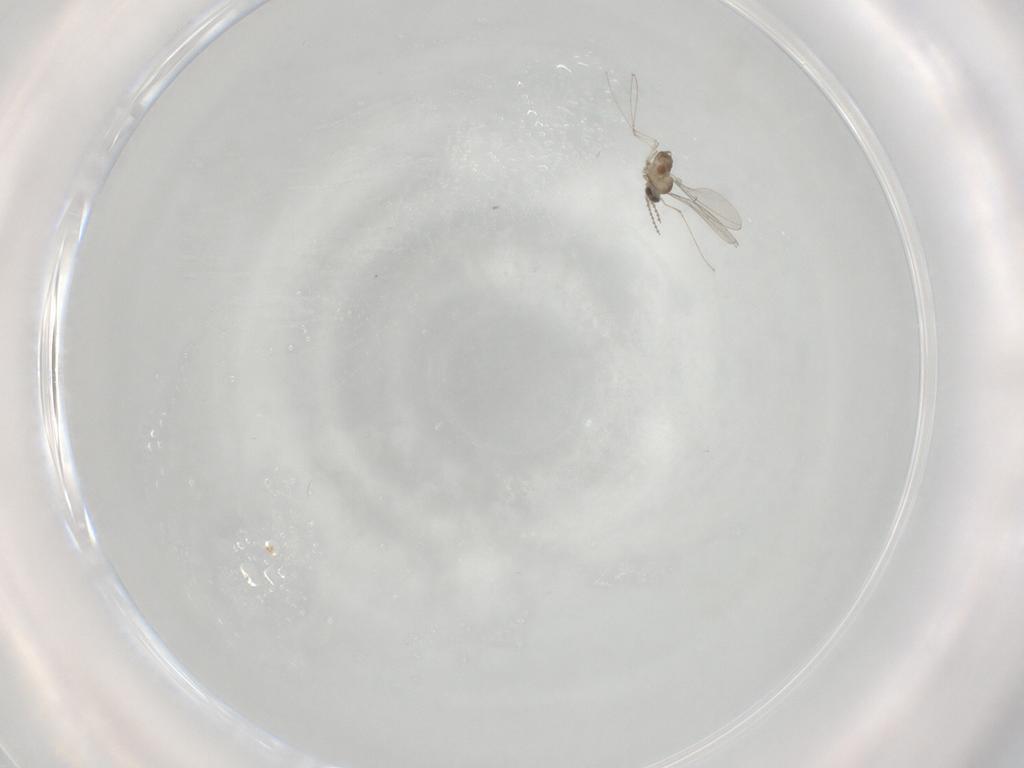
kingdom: Animalia
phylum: Arthropoda
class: Insecta
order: Diptera
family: Cecidomyiidae
